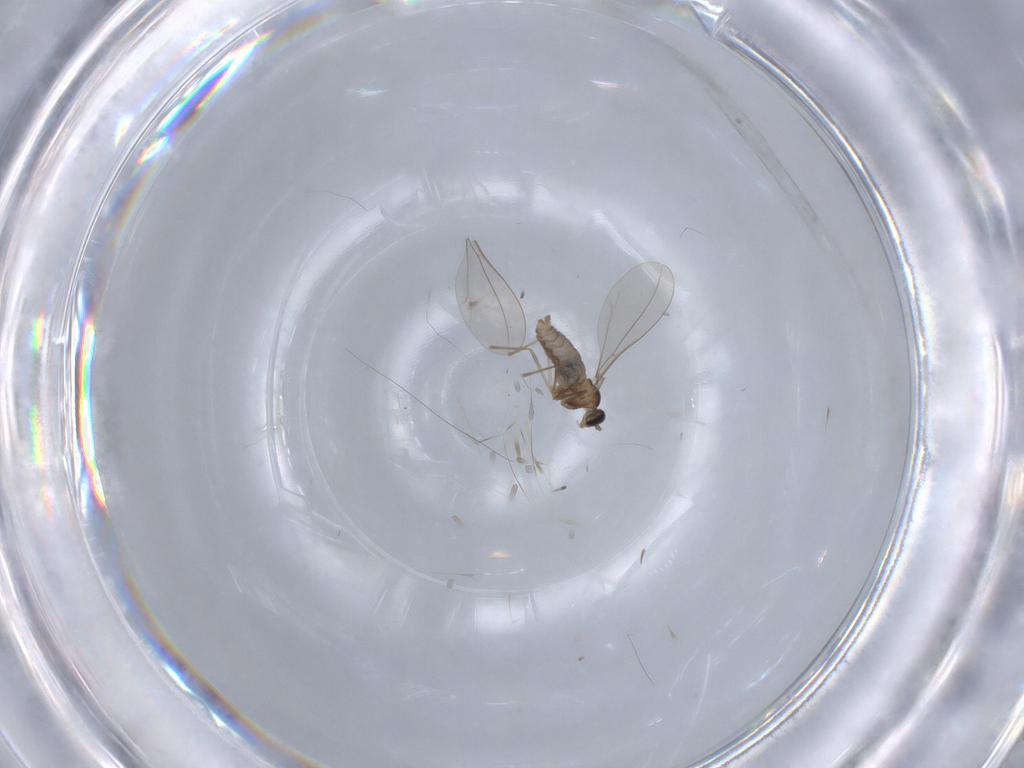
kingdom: Animalia
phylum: Arthropoda
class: Insecta
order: Diptera
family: Cecidomyiidae
